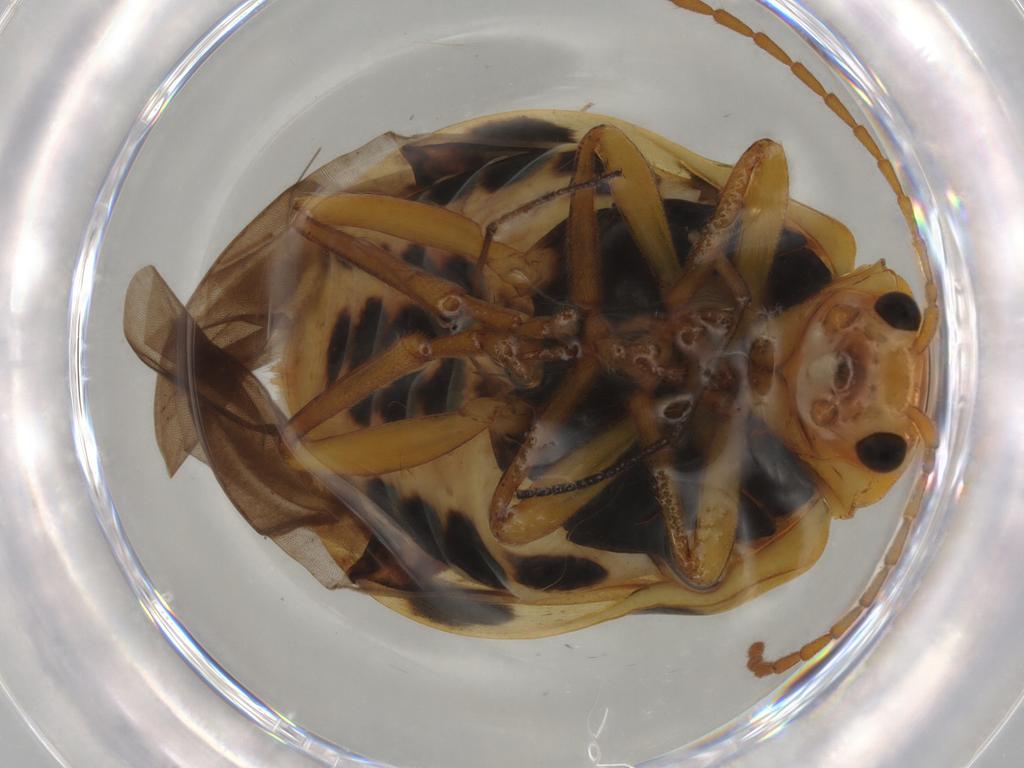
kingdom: Animalia
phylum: Arthropoda
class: Insecta
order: Coleoptera
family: Chrysomelidae
